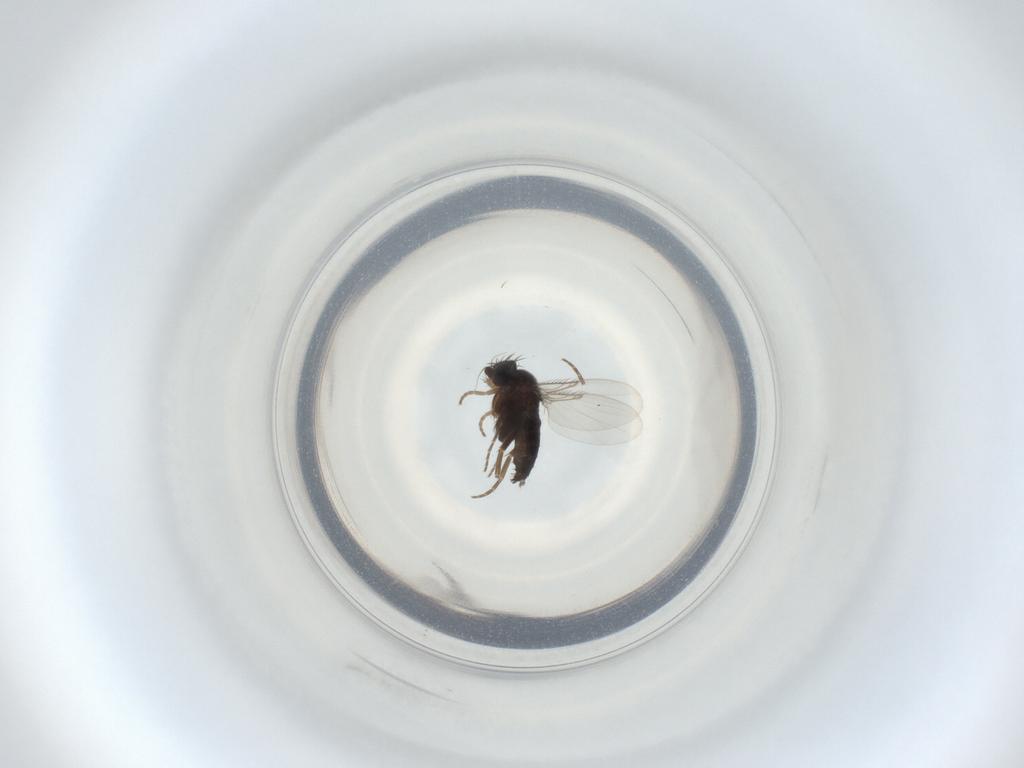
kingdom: Animalia
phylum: Arthropoda
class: Insecta
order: Diptera
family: Phoridae
